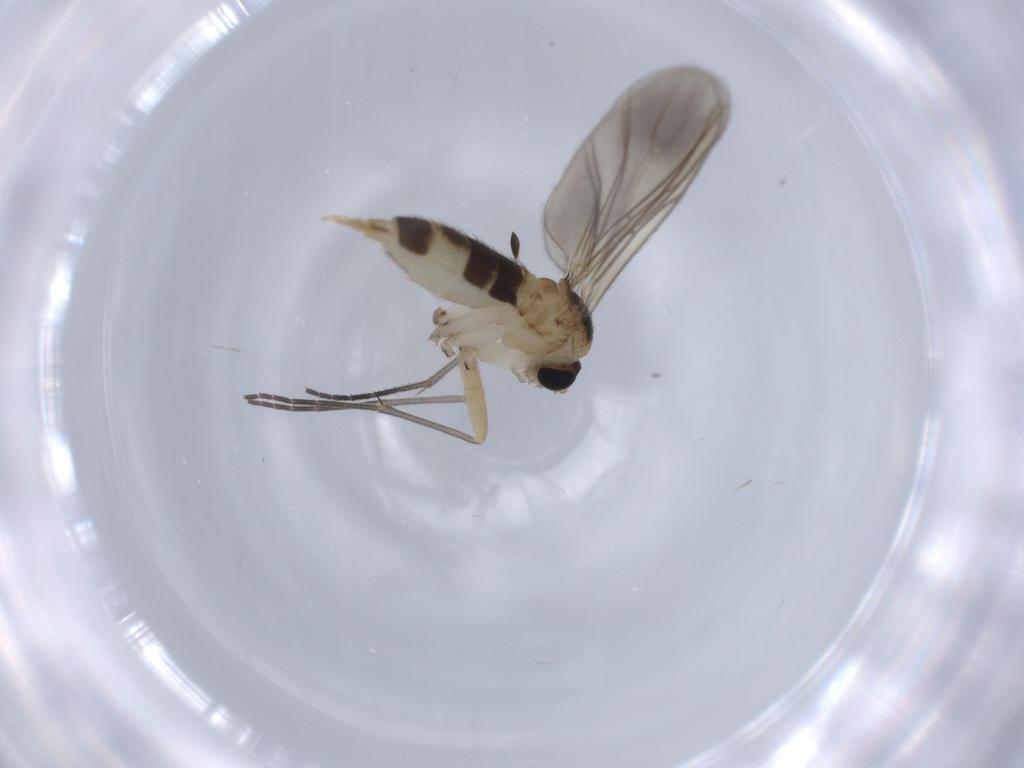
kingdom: Animalia
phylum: Arthropoda
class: Insecta
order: Diptera
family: Sciaridae
